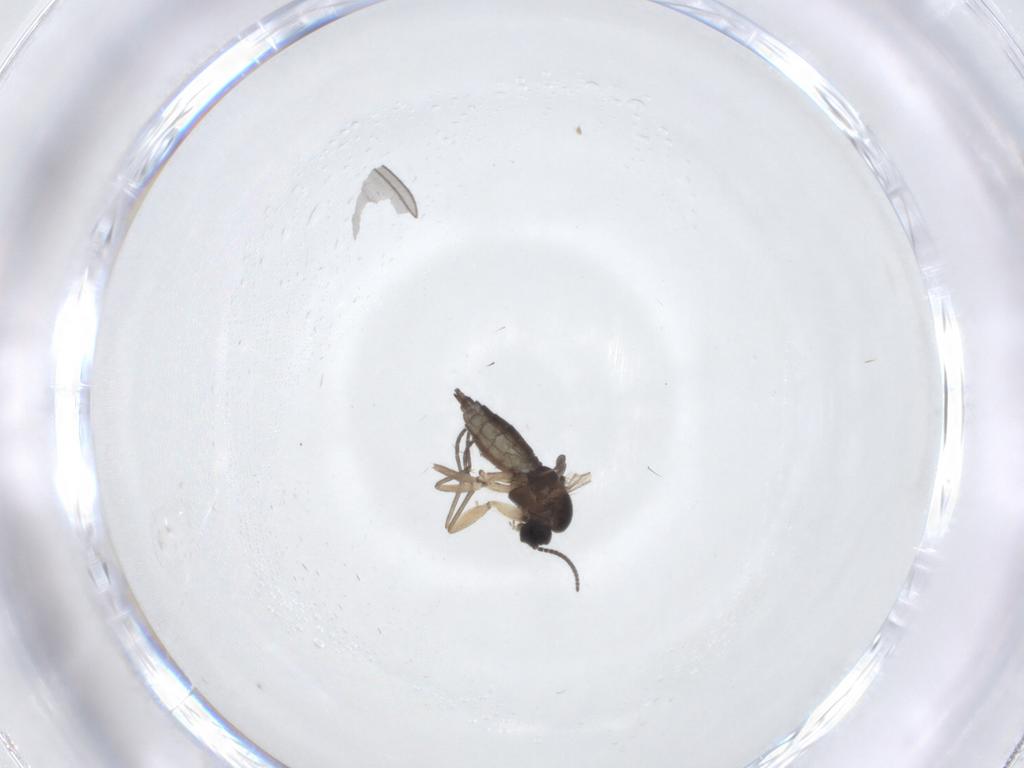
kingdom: Animalia
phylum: Arthropoda
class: Insecta
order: Diptera
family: Sciaridae
